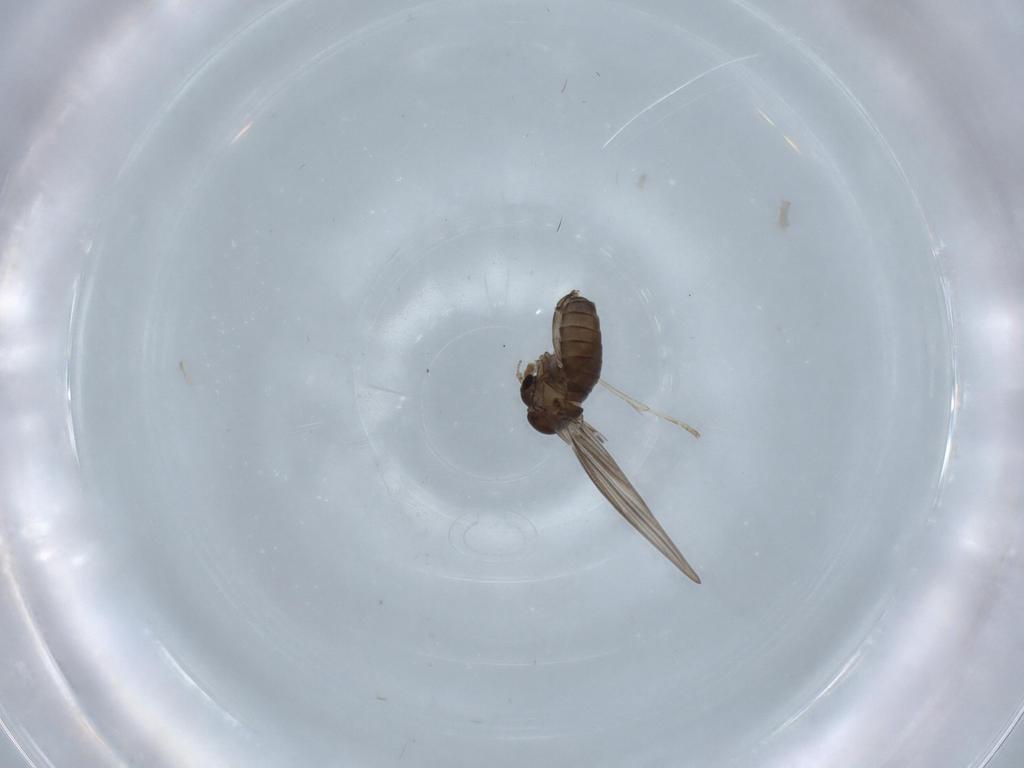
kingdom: Animalia
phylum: Arthropoda
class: Insecta
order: Diptera
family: Psychodidae
